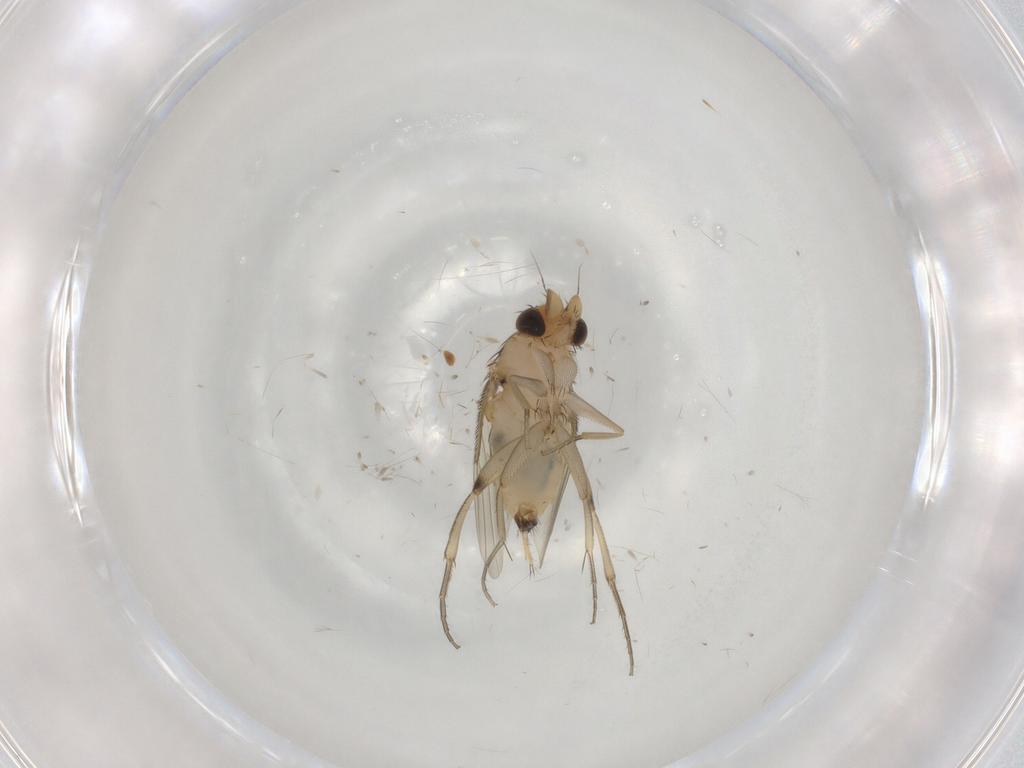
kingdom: Animalia
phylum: Arthropoda
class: Insecta
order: Diptera
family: Phoridae
